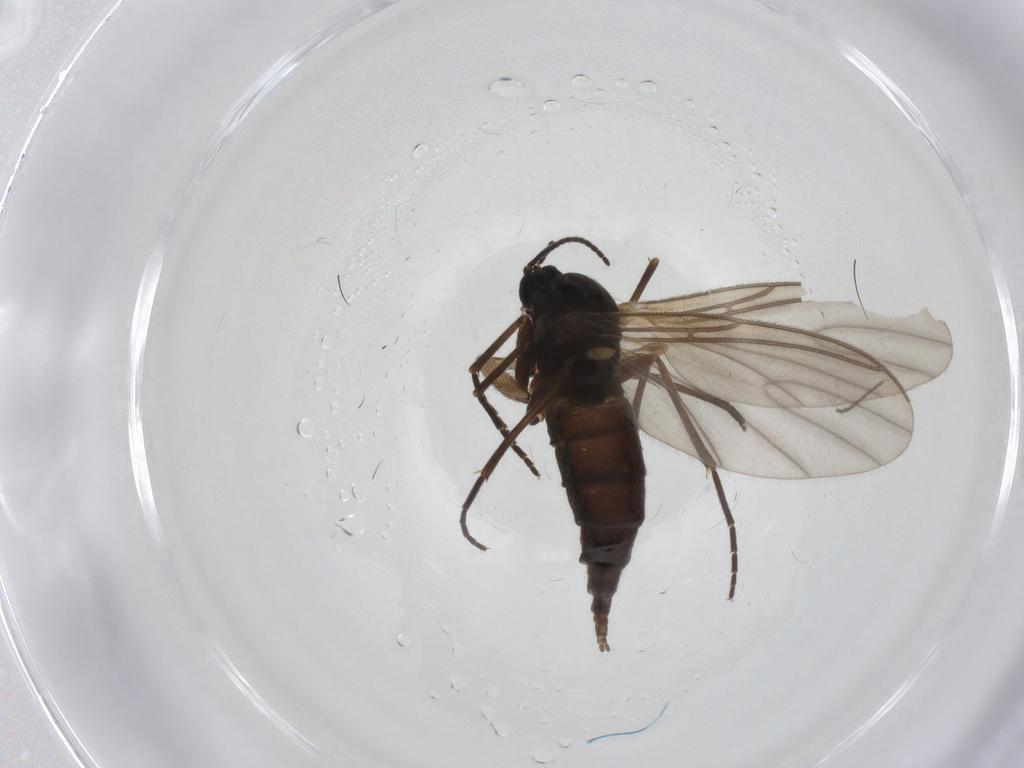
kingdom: Animalia
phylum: Arthropoda
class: Insecta
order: Diptera
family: Sciaridae
